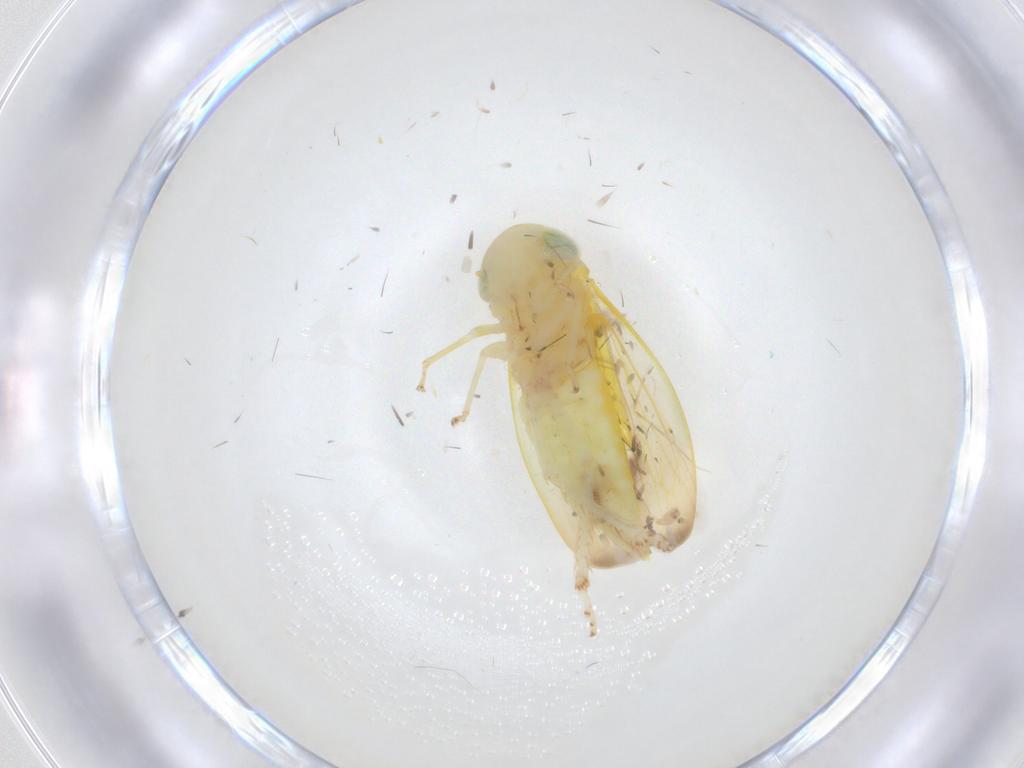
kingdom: Animalia
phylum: Arthropoda
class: Insecta
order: Hemiptera
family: Cicadellidae
